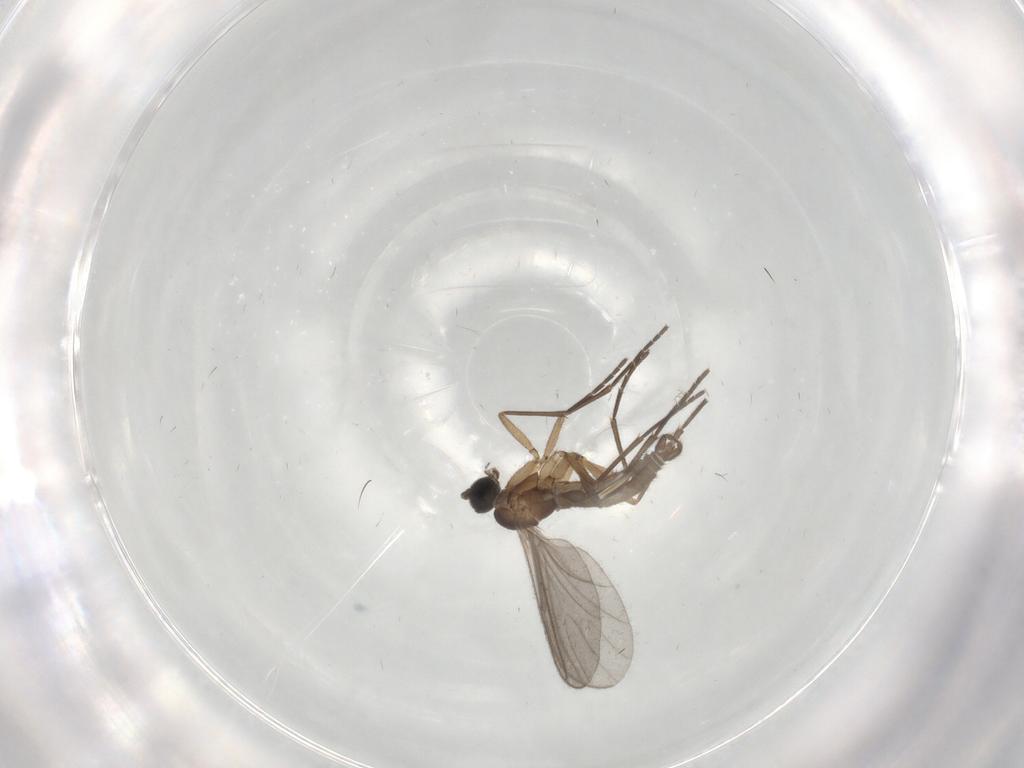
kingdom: Animalia
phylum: Arthropoda
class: Insecta
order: Diptera
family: Sciaridae
